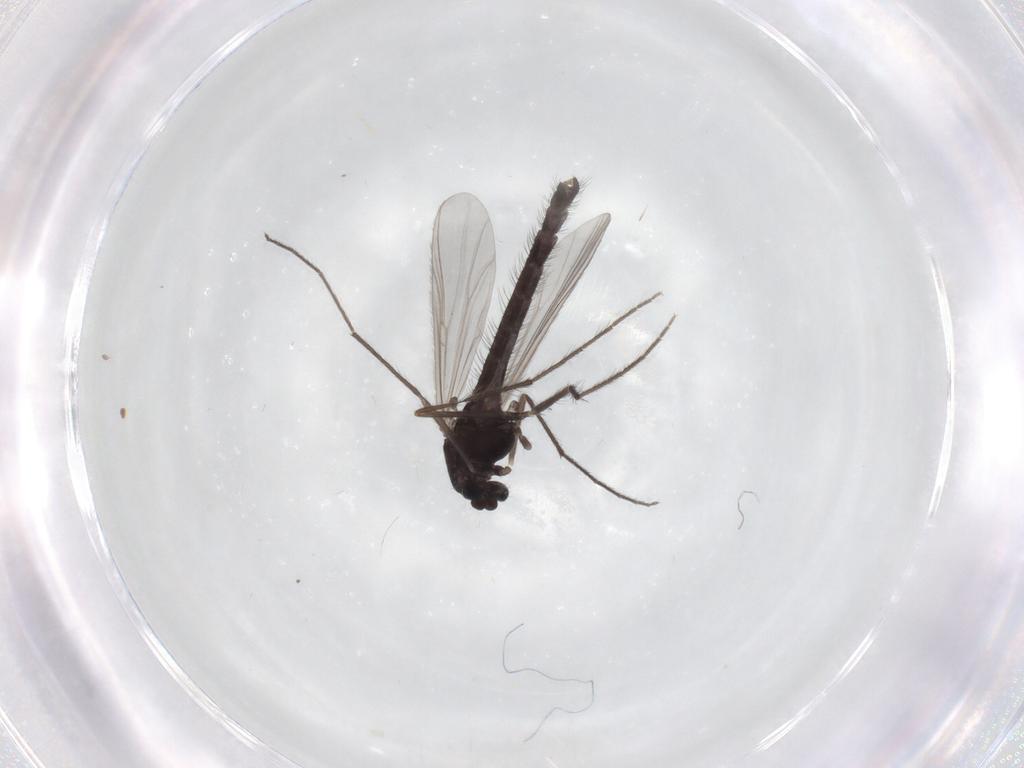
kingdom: Animalia
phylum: Arthropoda
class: Insecta
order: Diptera
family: Chironomidae
